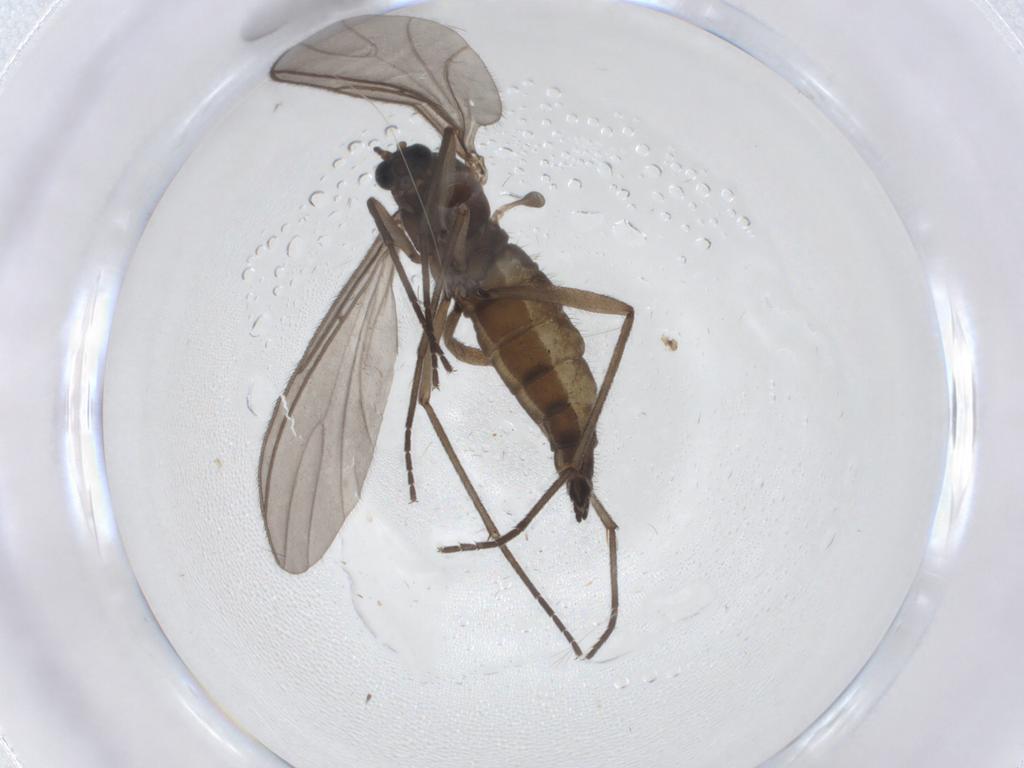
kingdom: Animalia
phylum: Arthropoda
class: Insecta
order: Diptera
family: Sciaridae
